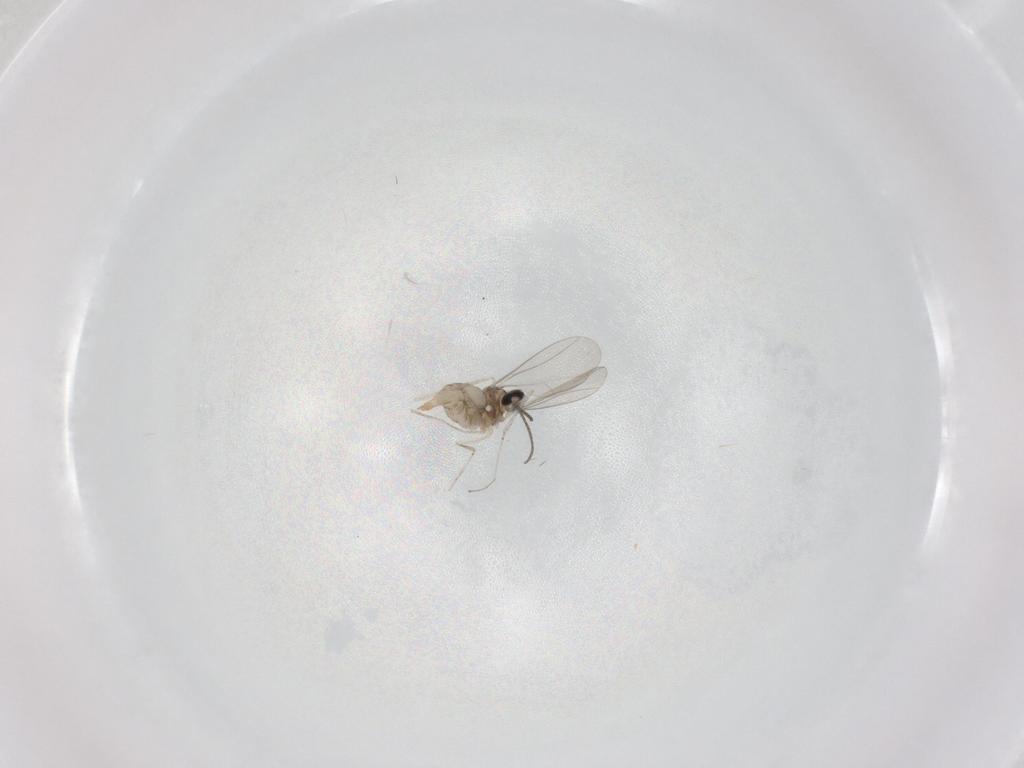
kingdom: Animalia
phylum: Arthropoda
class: Insecta
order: Diptera
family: Cecidomyiidae
